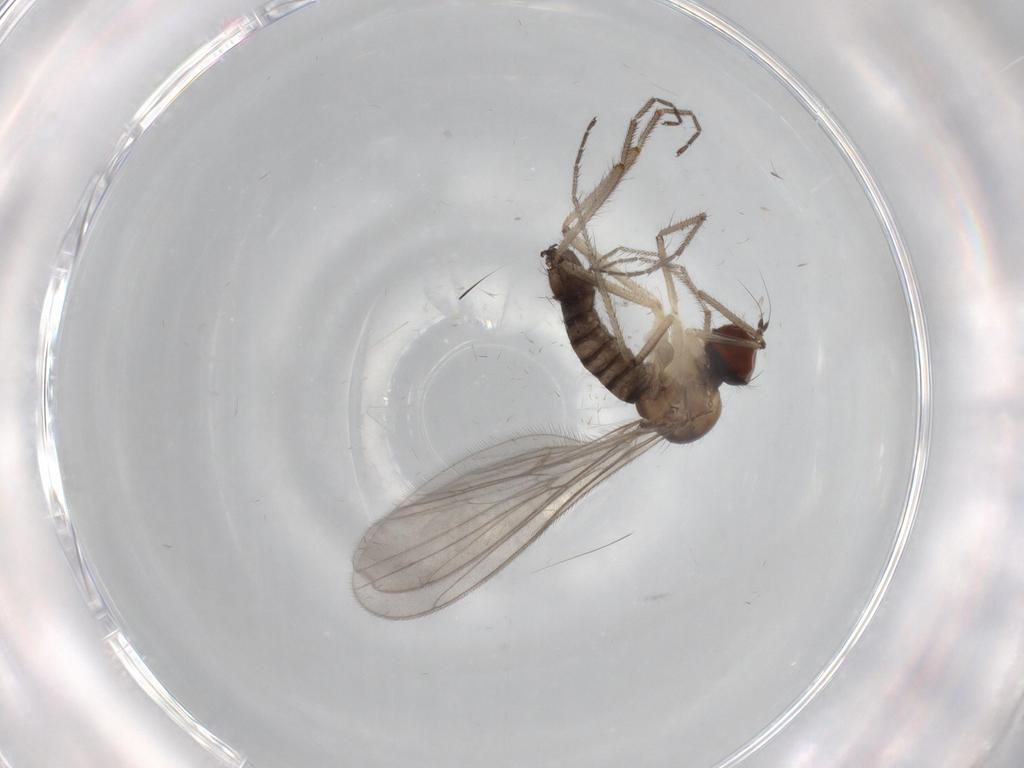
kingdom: Animalia
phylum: Arthropoda
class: Insecta
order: Diptera
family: Hybotidae
